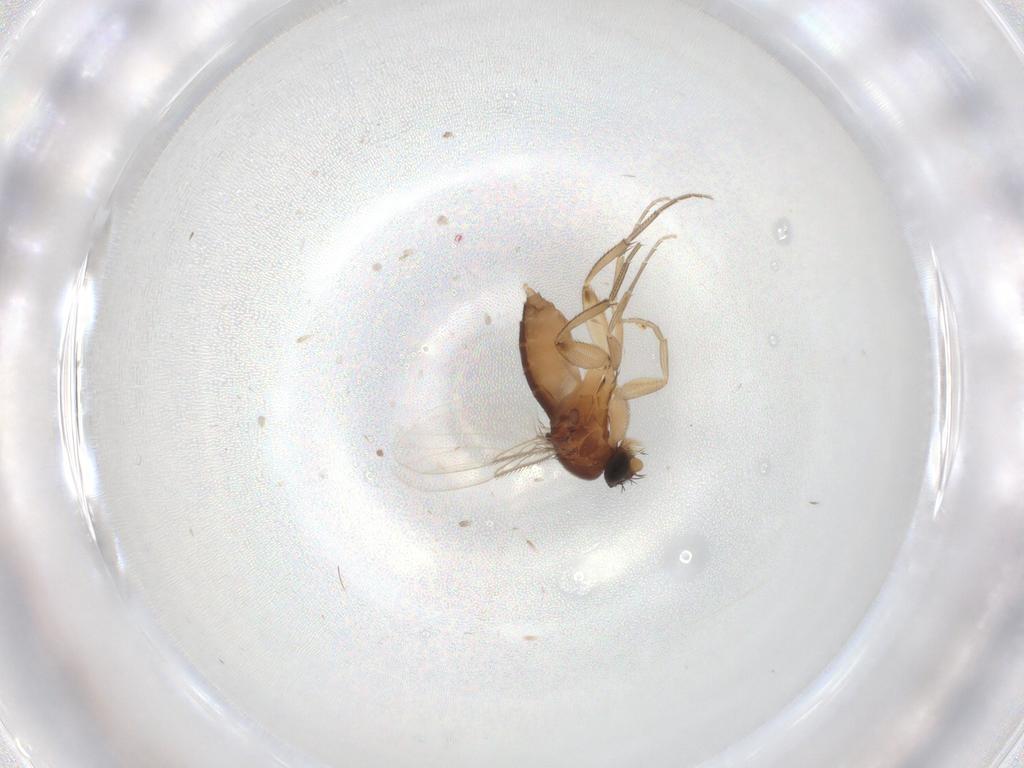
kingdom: Animalia
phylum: Arthropoda
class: Insecta
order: Diptera
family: Phoridae
